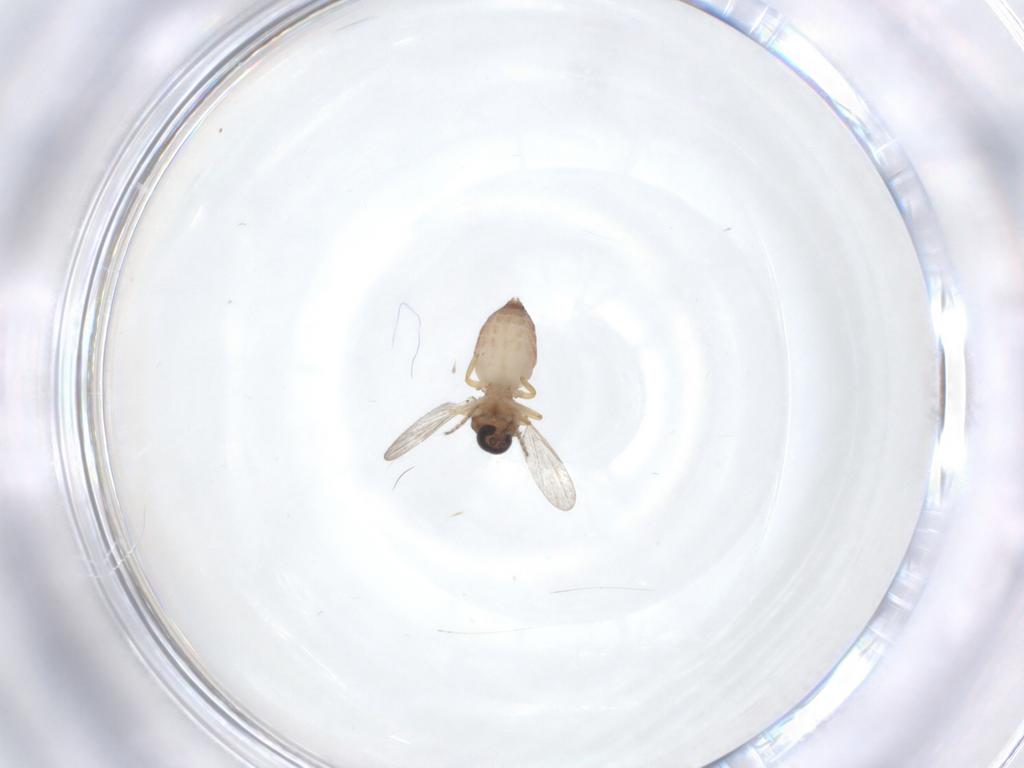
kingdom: Animalia
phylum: Arthropoda
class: Insecta
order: Diptera
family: Ceratopogonidae
